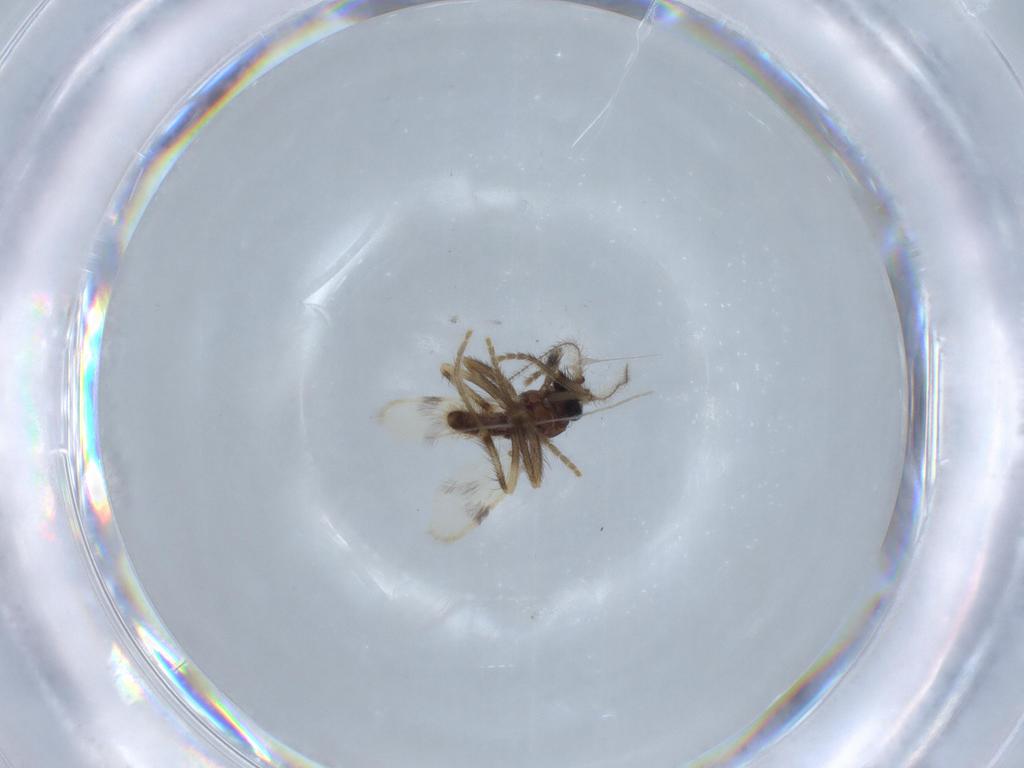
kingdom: Animalia
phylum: Arthropoda
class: Insecta
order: Diptera
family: Corethrellidae
